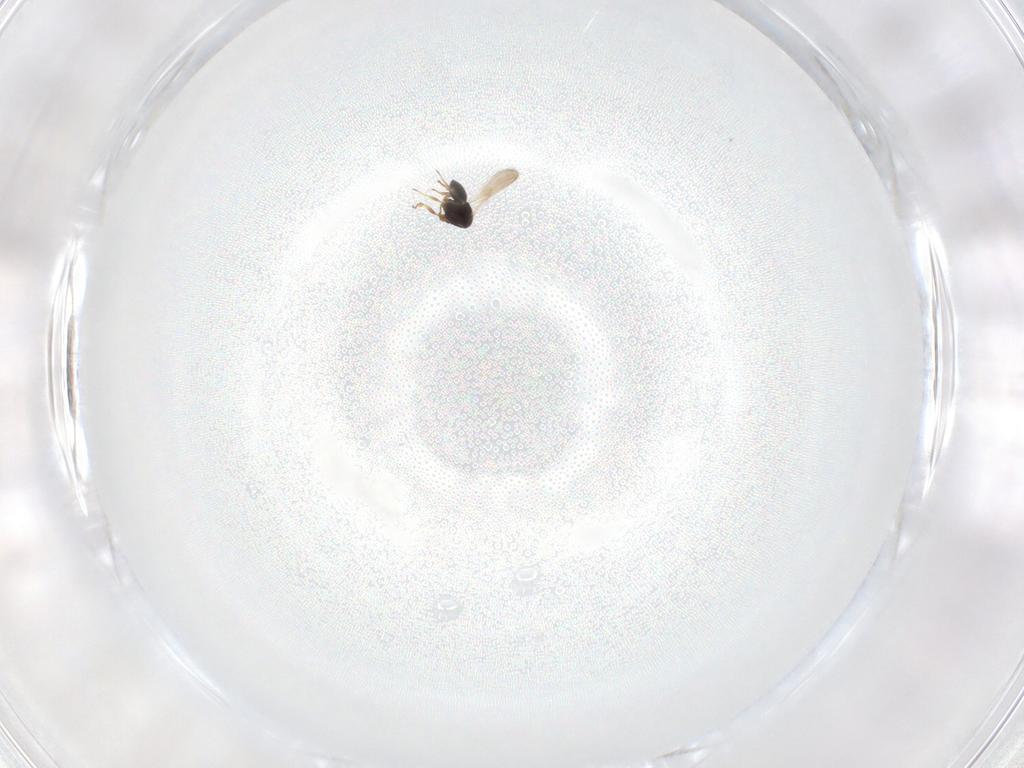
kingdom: Animalia
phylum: Arthropoda
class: Insecta
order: Hymenoptera
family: Scelionidae
